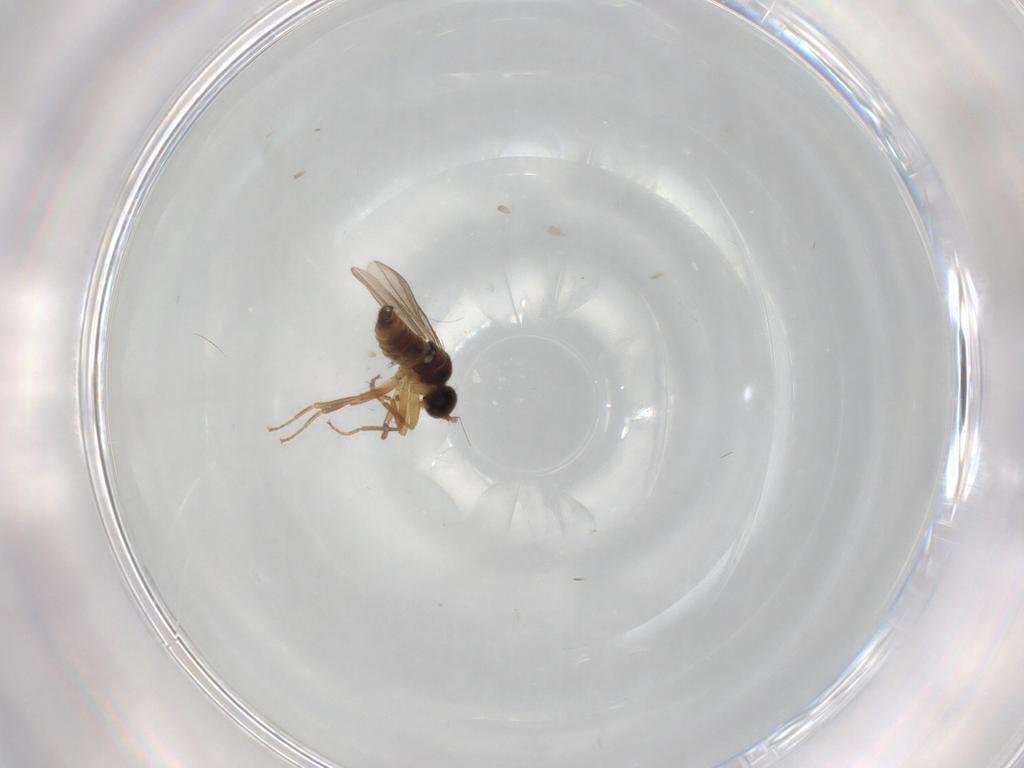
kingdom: Animalia
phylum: Arthropoda
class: Insecta
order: Diptera
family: Hybotidae
